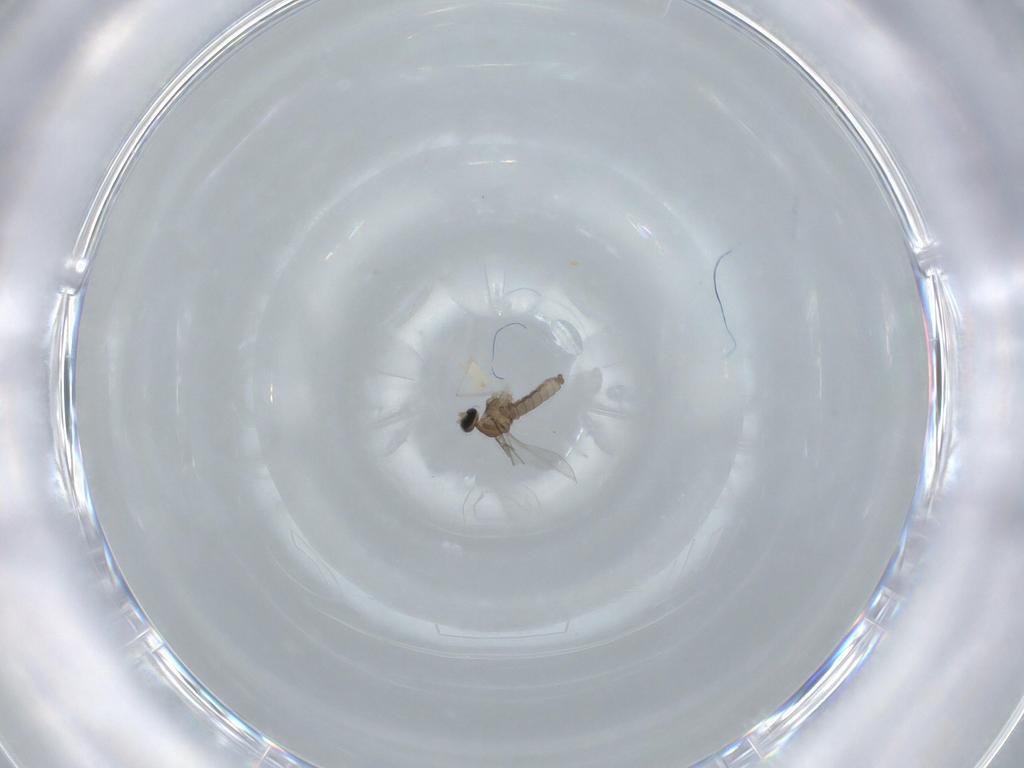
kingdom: Animalia
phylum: Arthropoda
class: Insecta
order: Diptera
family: Cecidomyiidae
